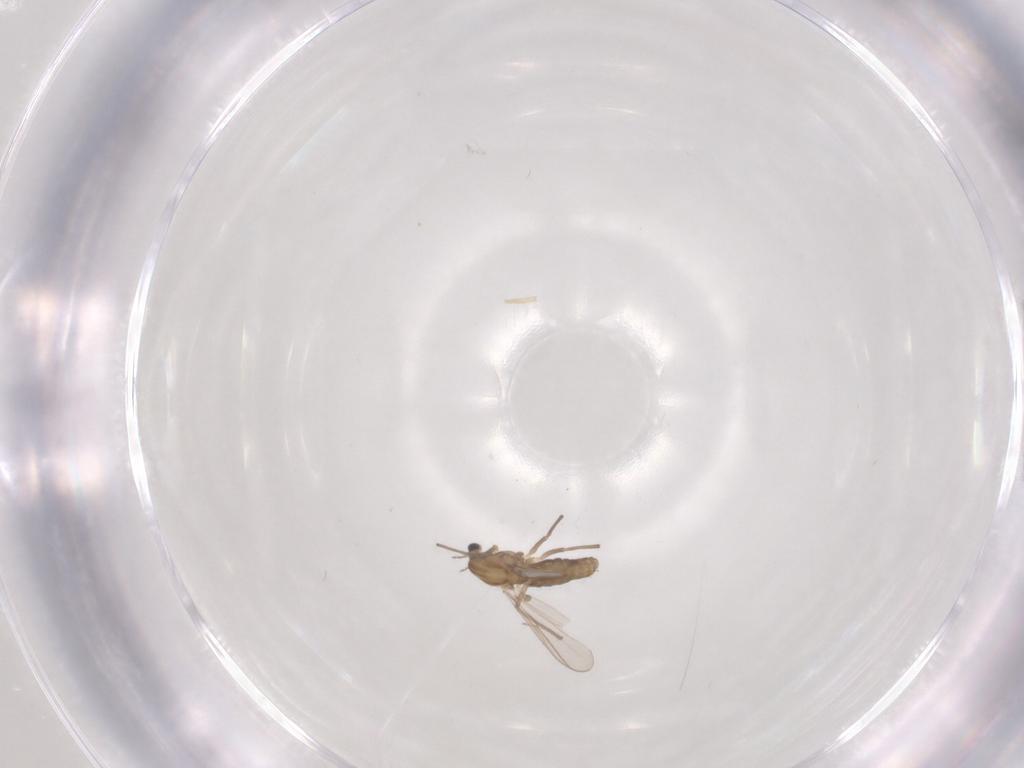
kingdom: Animalia
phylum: Arthropoda
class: Insecta
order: Diptera
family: Chironomidae
